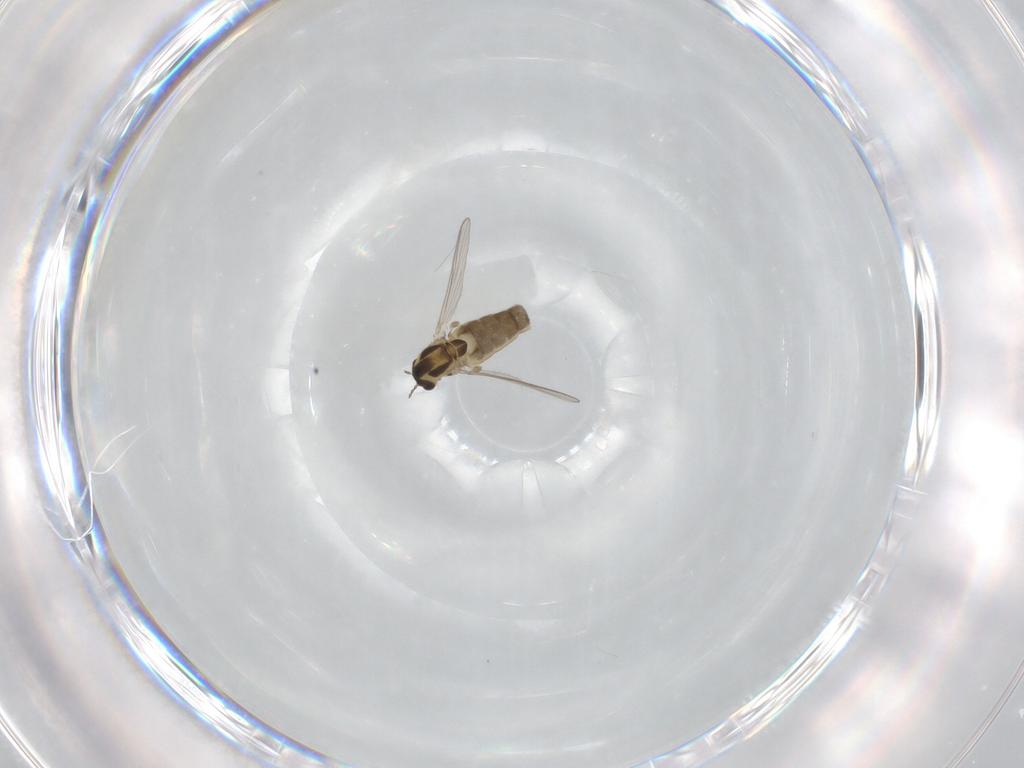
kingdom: Animalia
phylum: Arthropoda
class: Insecta
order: Diptera
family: Chironomidae
